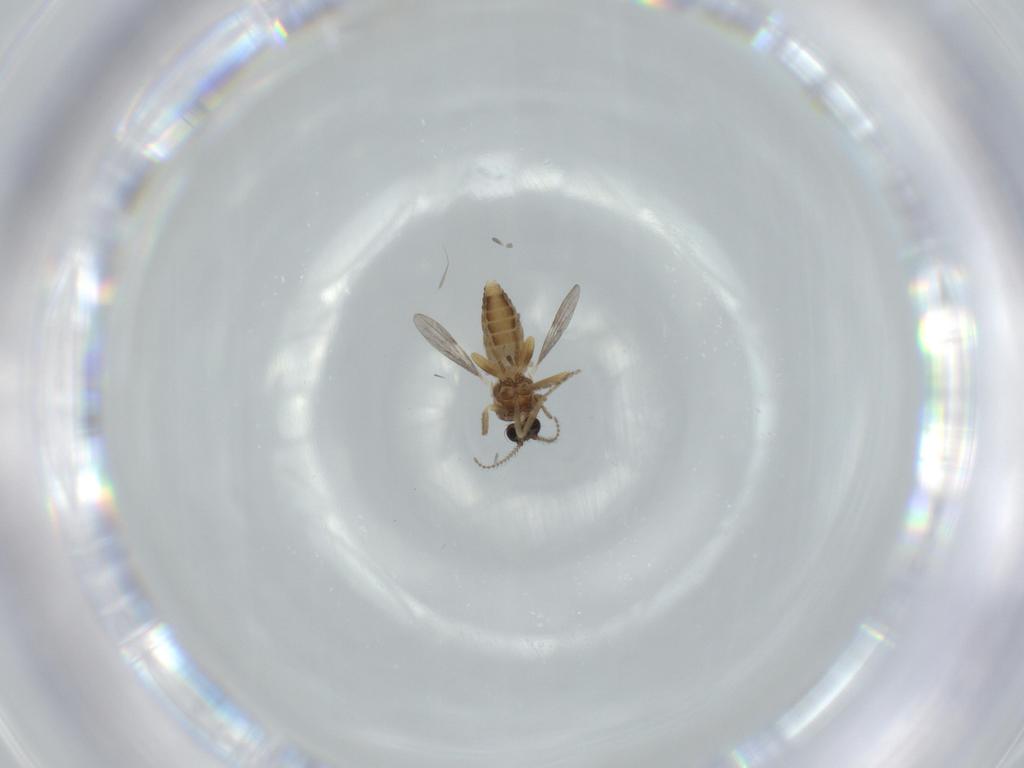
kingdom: Animalia
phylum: Arthropoda
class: Insecta
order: Diptera
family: Ceratopogonidae
